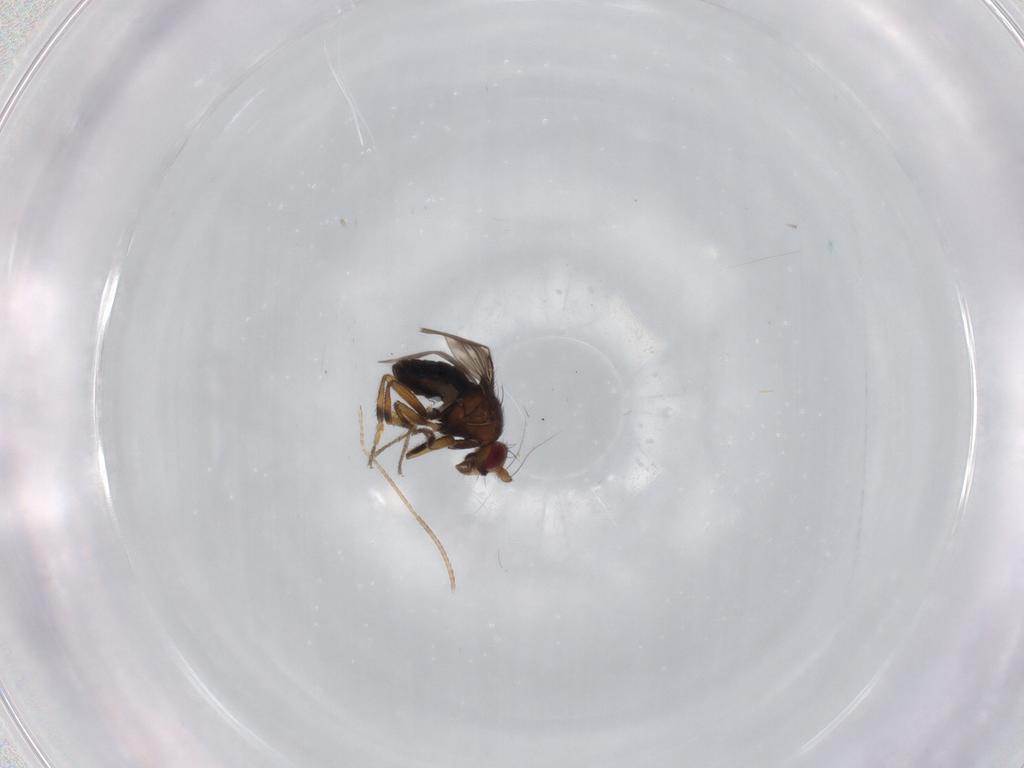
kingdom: Animalia
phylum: Arthropoda
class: Insecta
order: Diptera
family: Sphaeroceridae
